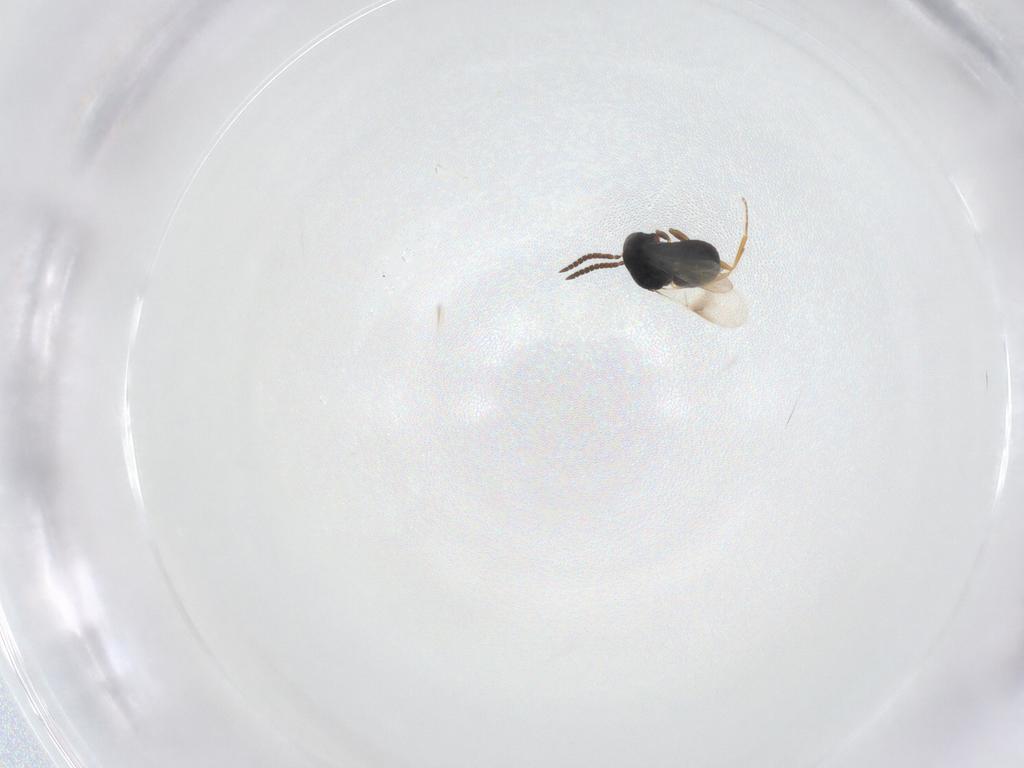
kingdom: Animalia
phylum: Arthropoda
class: Insecta
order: Hymenoptera
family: Scelionidae
